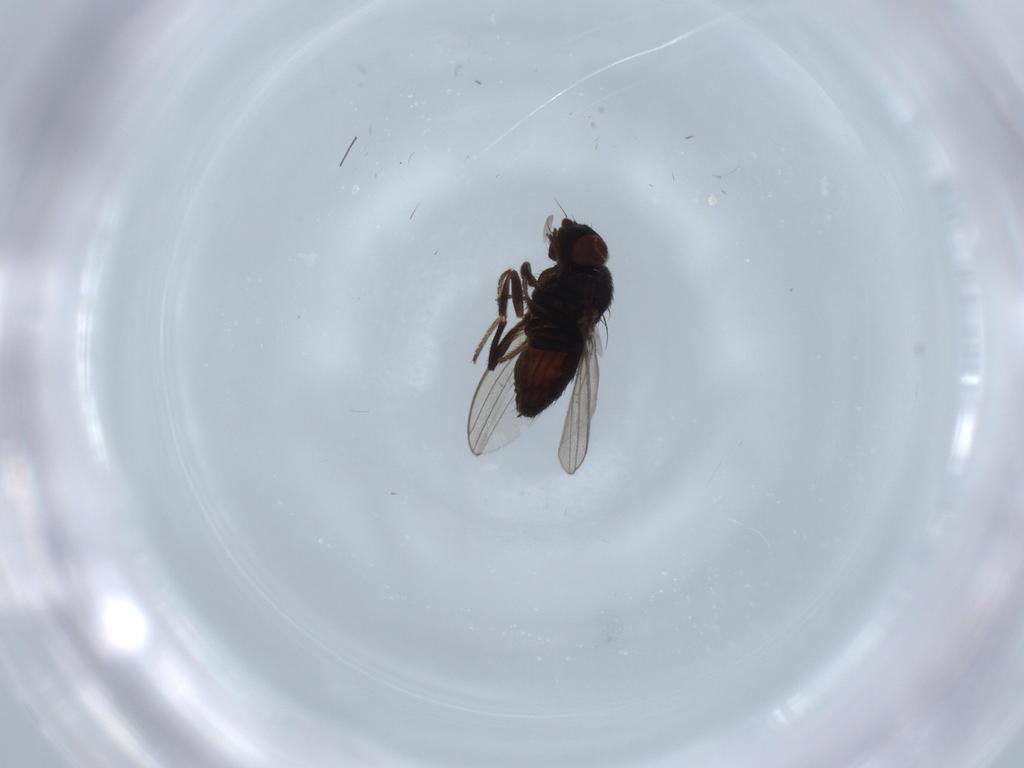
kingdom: Animalia
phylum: Arthropoda
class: Insecta
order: Diptera
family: Milichiidae
